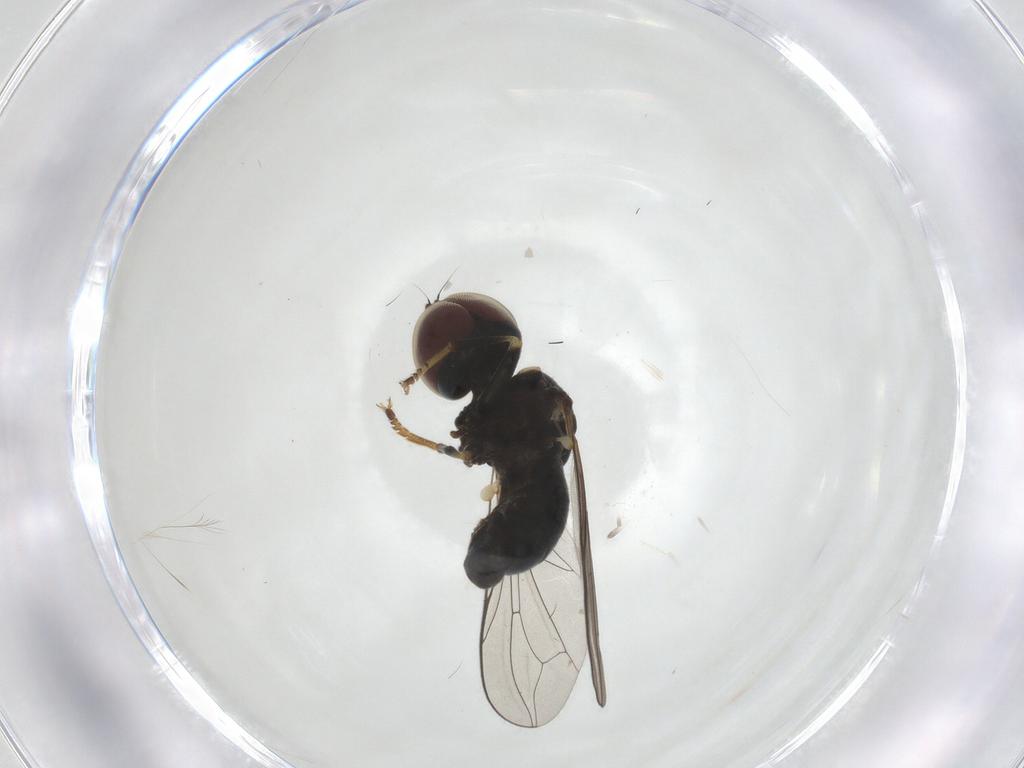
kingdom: Animalia
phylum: Arthropoda
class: Insecta
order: Diptera
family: Pipunculidae
